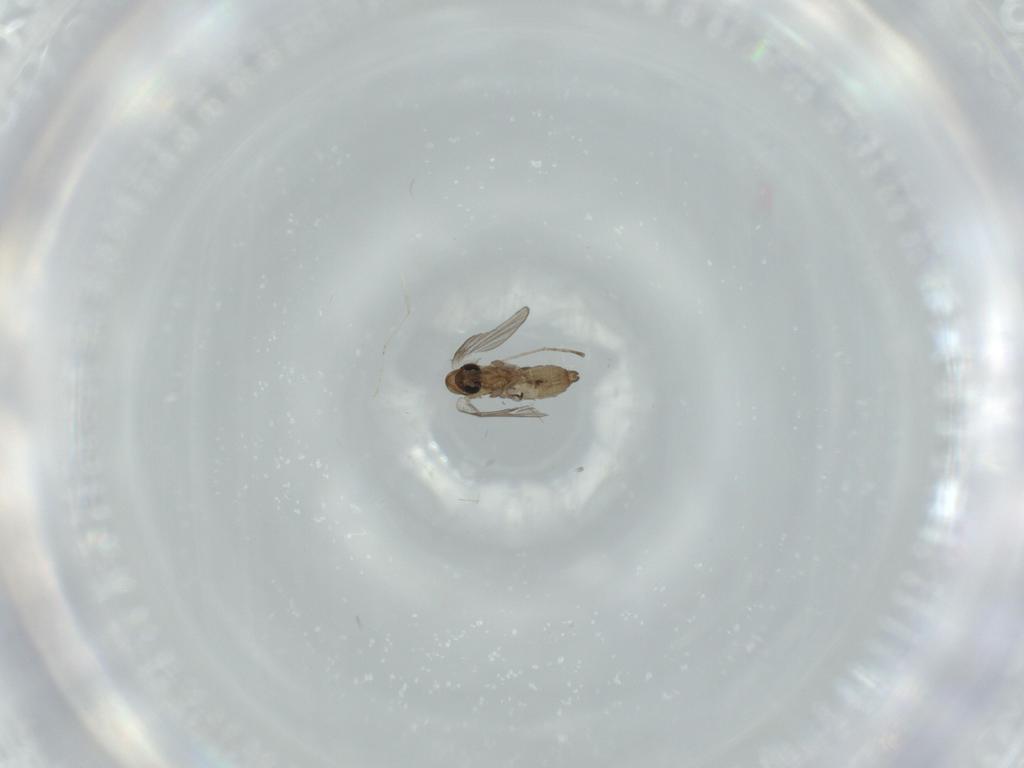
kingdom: Animalia
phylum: Arthropoda
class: Insecta
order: Diptera
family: Cecidomyiidae
